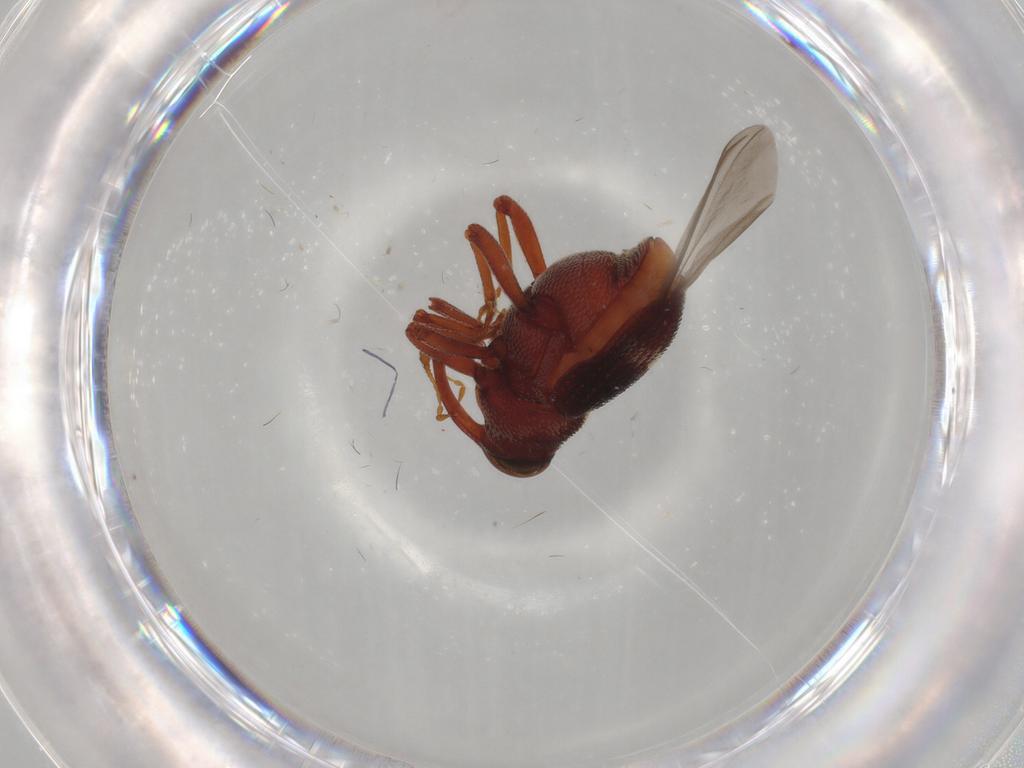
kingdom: Animalia
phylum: Arthropoda
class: Insecta
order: Coleoptera
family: Curculionidae
